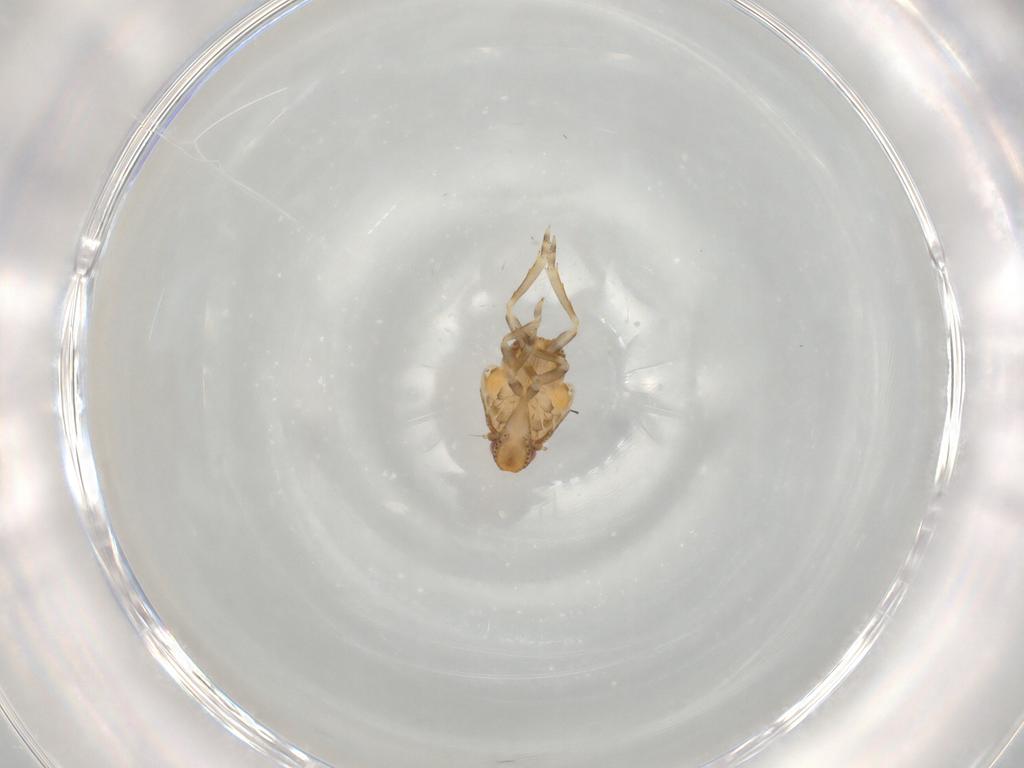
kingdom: Animalia
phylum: Arthropoda
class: Insecta
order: Hemiptera
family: Flatidae
